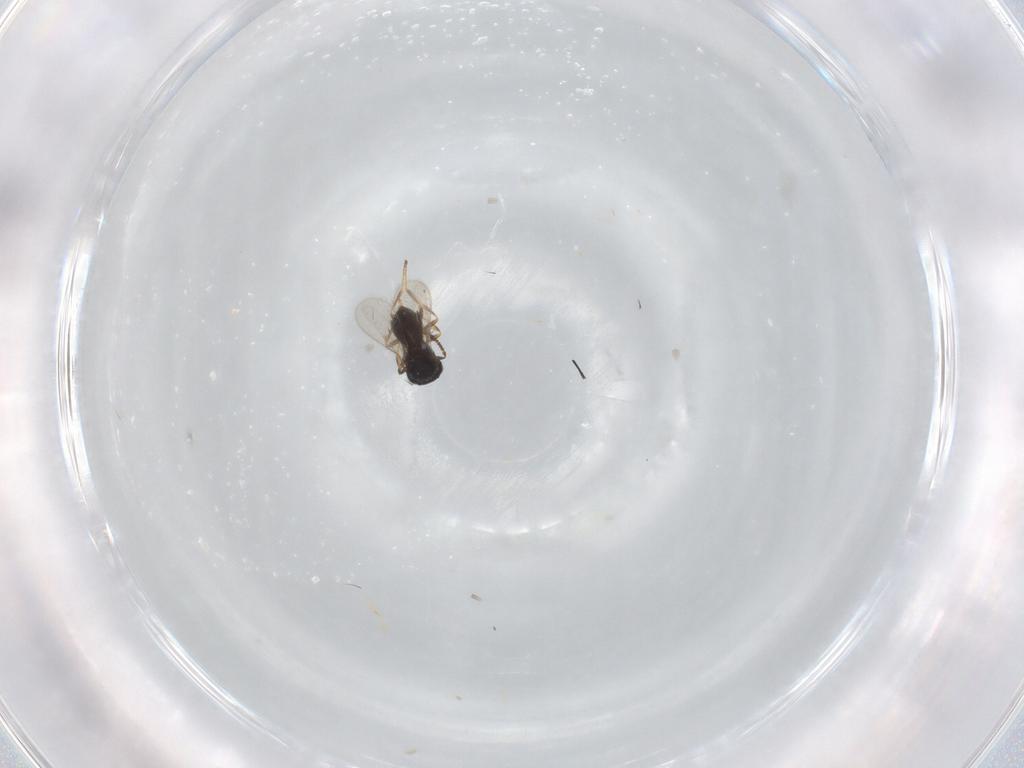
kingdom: Animalia
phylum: Arthropoda
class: Insecta
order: Hymenoptera
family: Scelionidae
